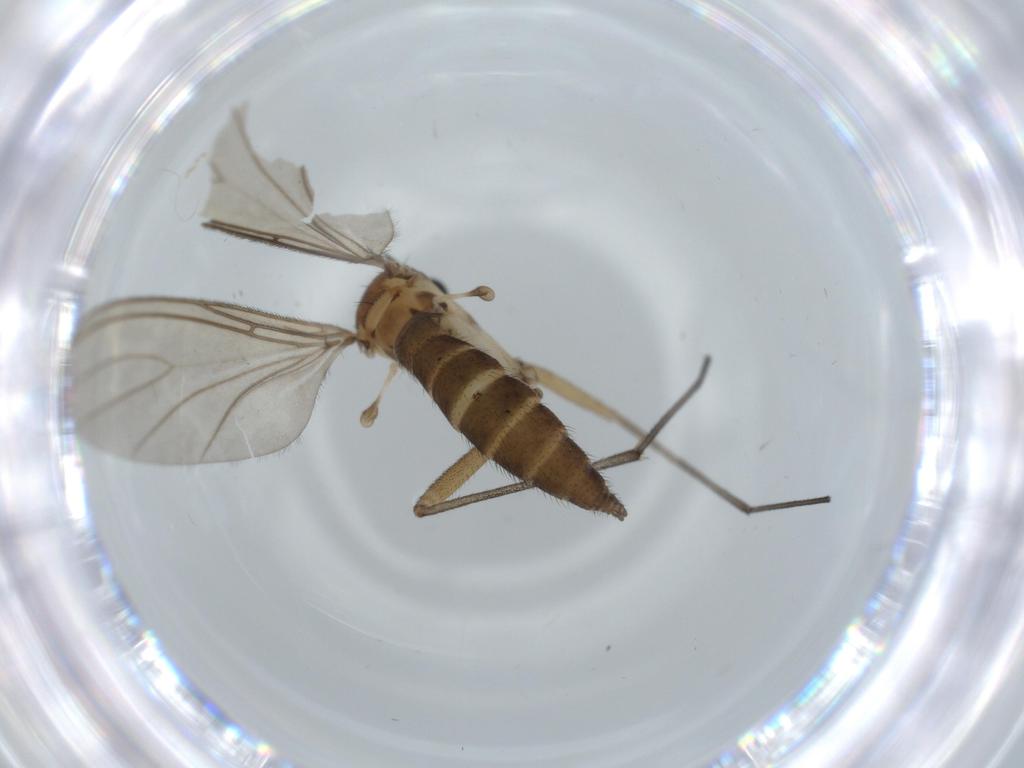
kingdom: Animalia
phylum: Arthropoda
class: Insecta
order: Diptera
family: Sciaridae
